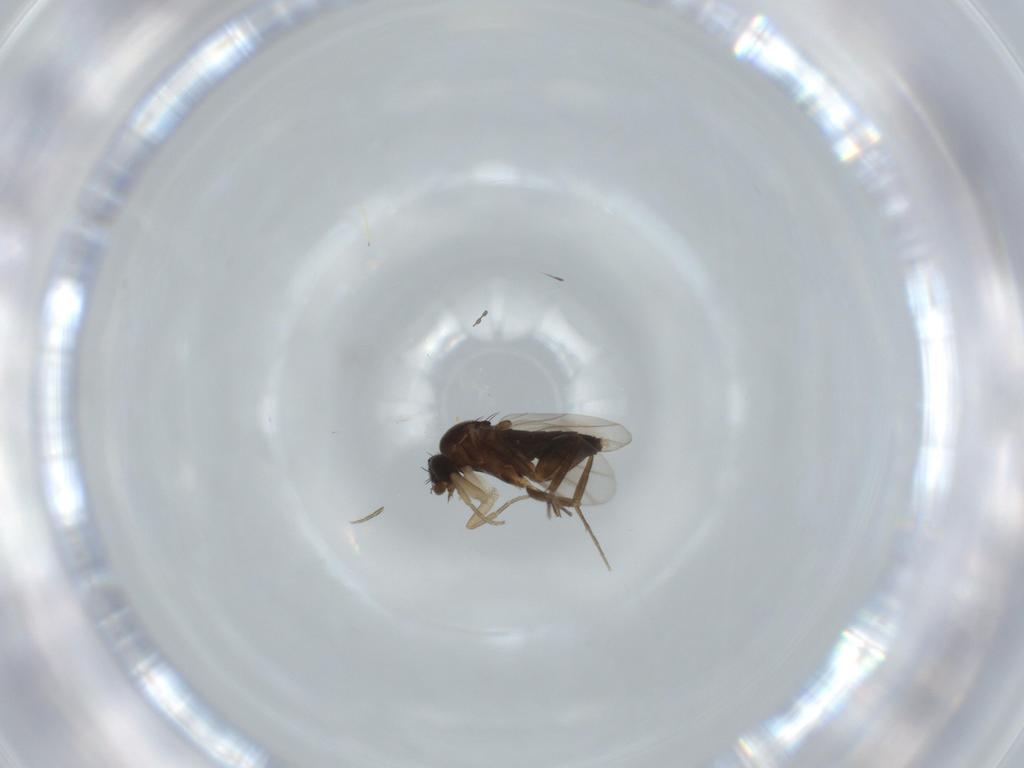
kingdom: Animalia
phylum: Arthropoda
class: Insecta
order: Diptera
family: Phoridae
